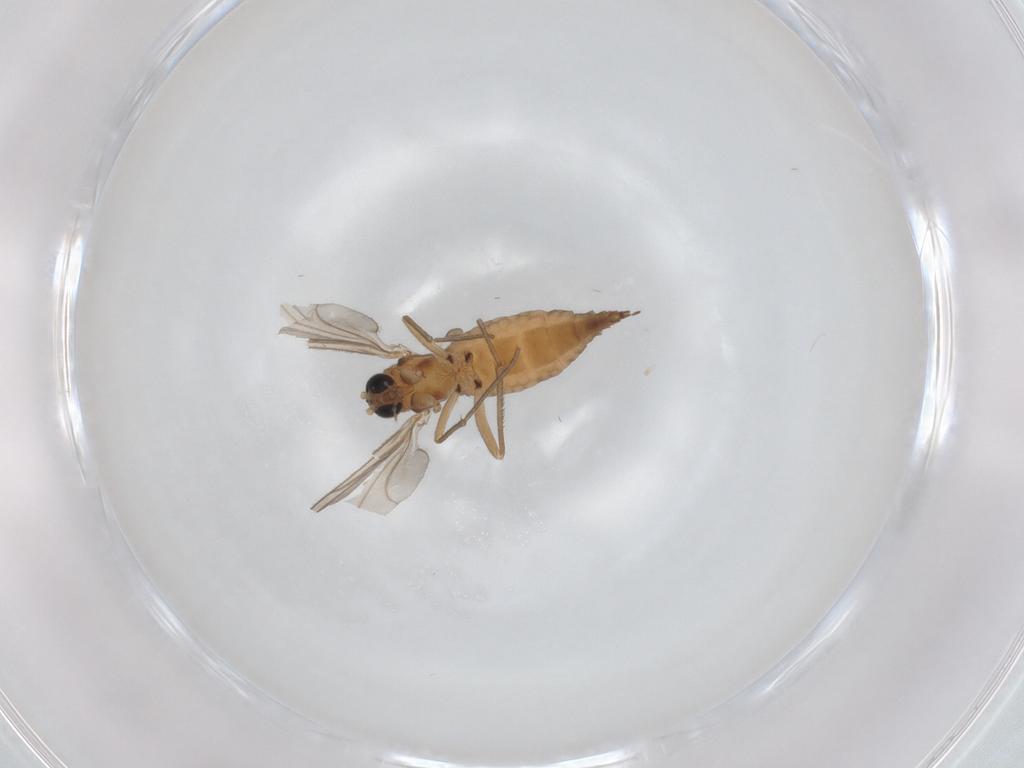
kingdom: Animalia
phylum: Arthropoda
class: Insecta
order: Diptera
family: Sciaridae
